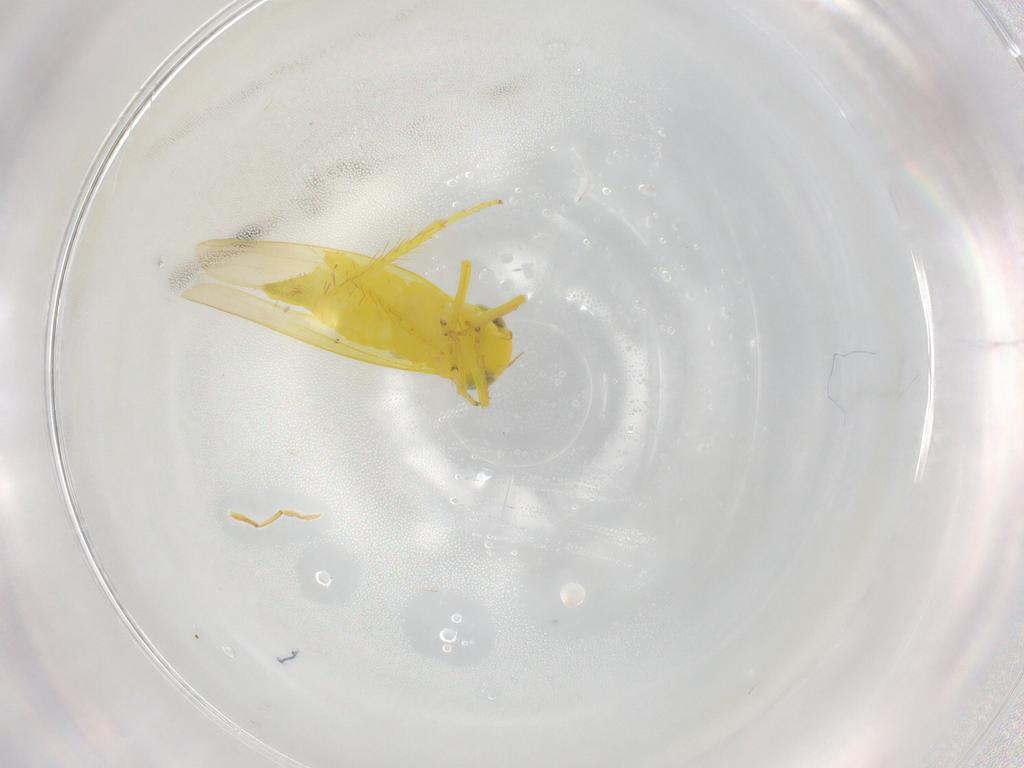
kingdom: Animalia
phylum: Arthropoda
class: Insecta
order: Hemiptera
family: Cicadellidae
